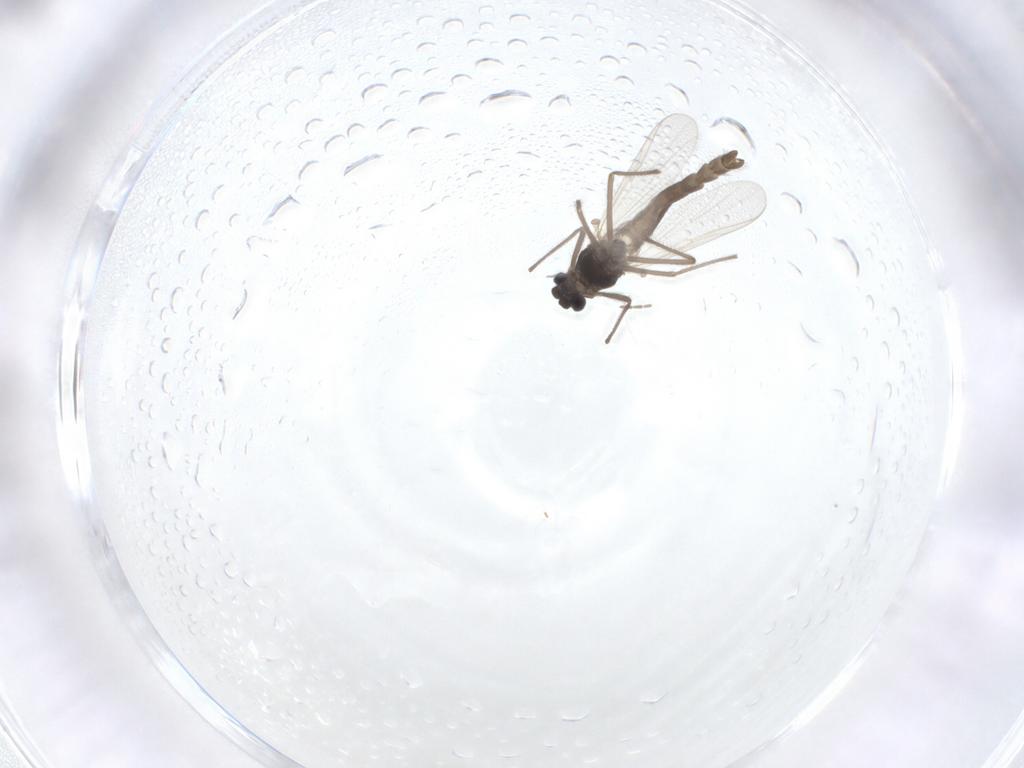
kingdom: Animalia
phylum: Arthropoda
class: Insecta
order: Diptera
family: Chironomidae
